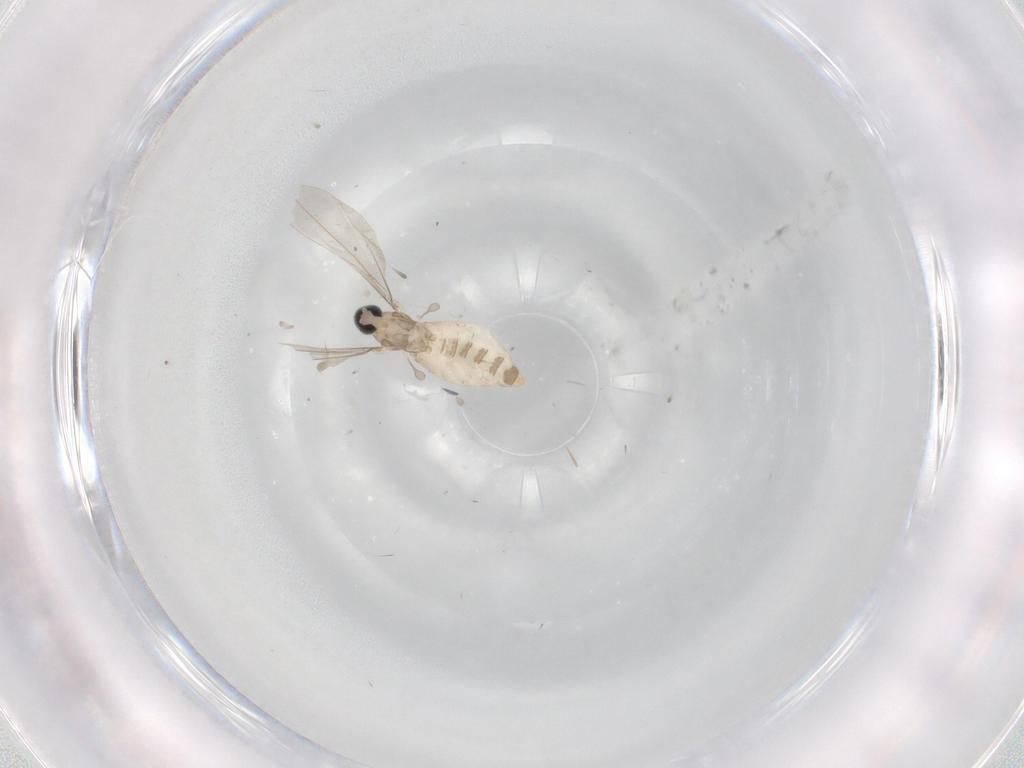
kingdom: Animalia
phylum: Arthropoda
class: Insecta
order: Diptera
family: Cecidomyiidae
